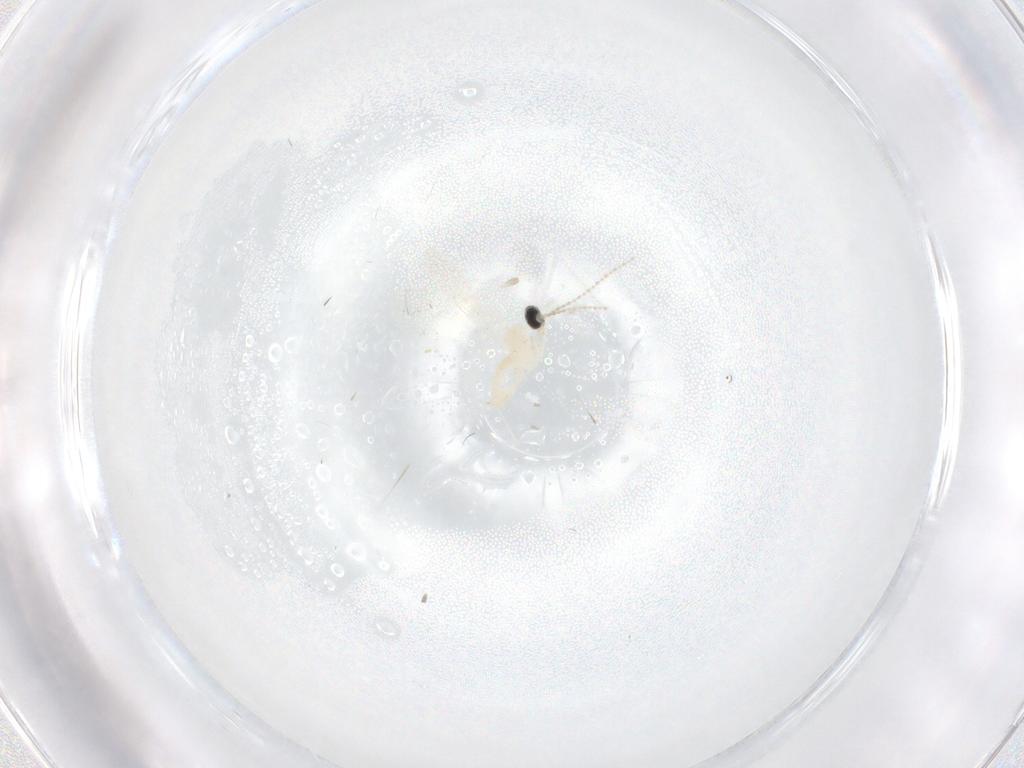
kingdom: Animalia
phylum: Arthropoda
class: Insecta
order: Diptera
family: Cecidomyiidae
